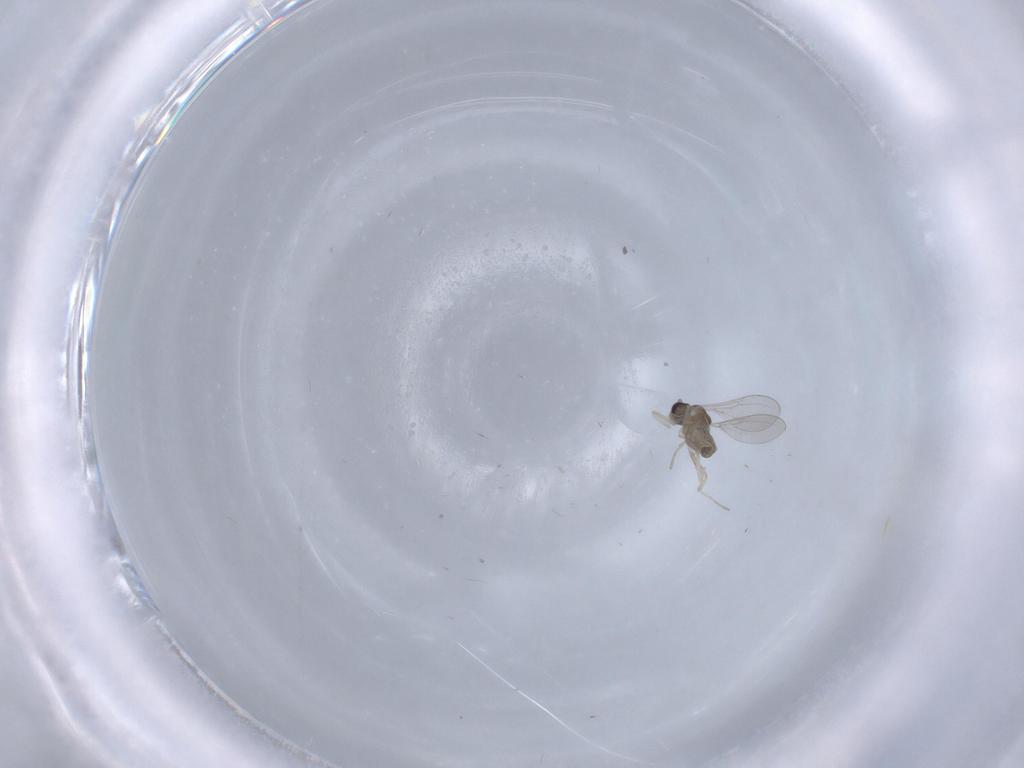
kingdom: Animalia
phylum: Arthropoda
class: Insecta
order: Diptera
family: Cecidomyiidae
